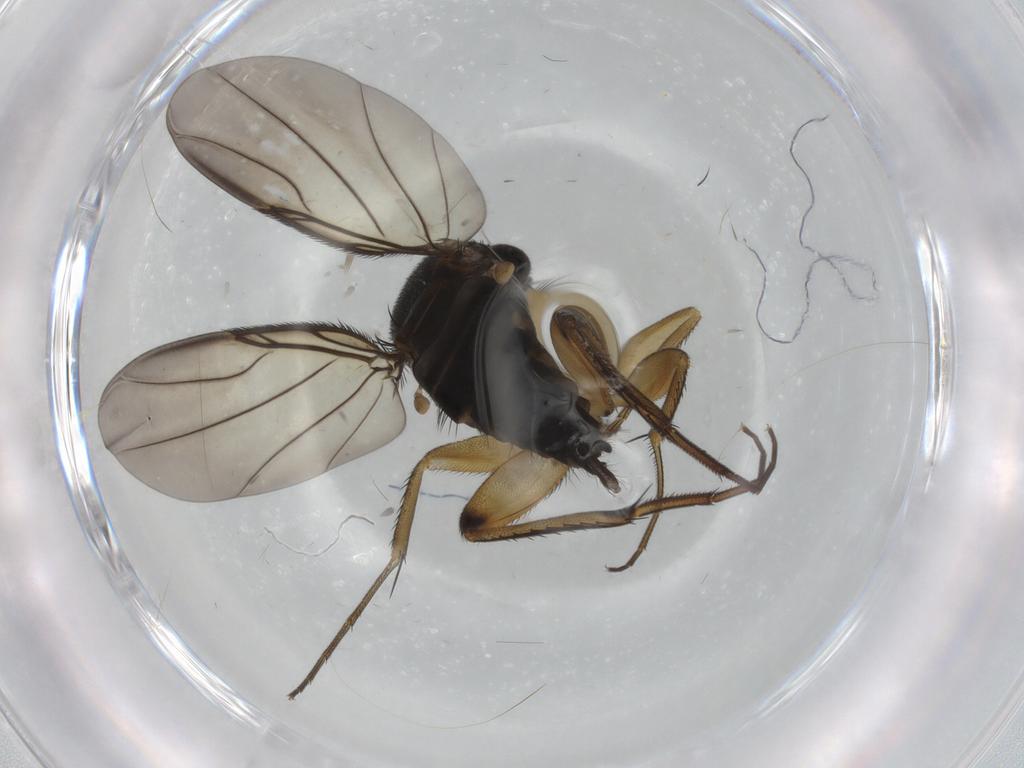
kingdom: Animalia
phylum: Arthropoda
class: Insecta
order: Diptera
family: Phoridae
